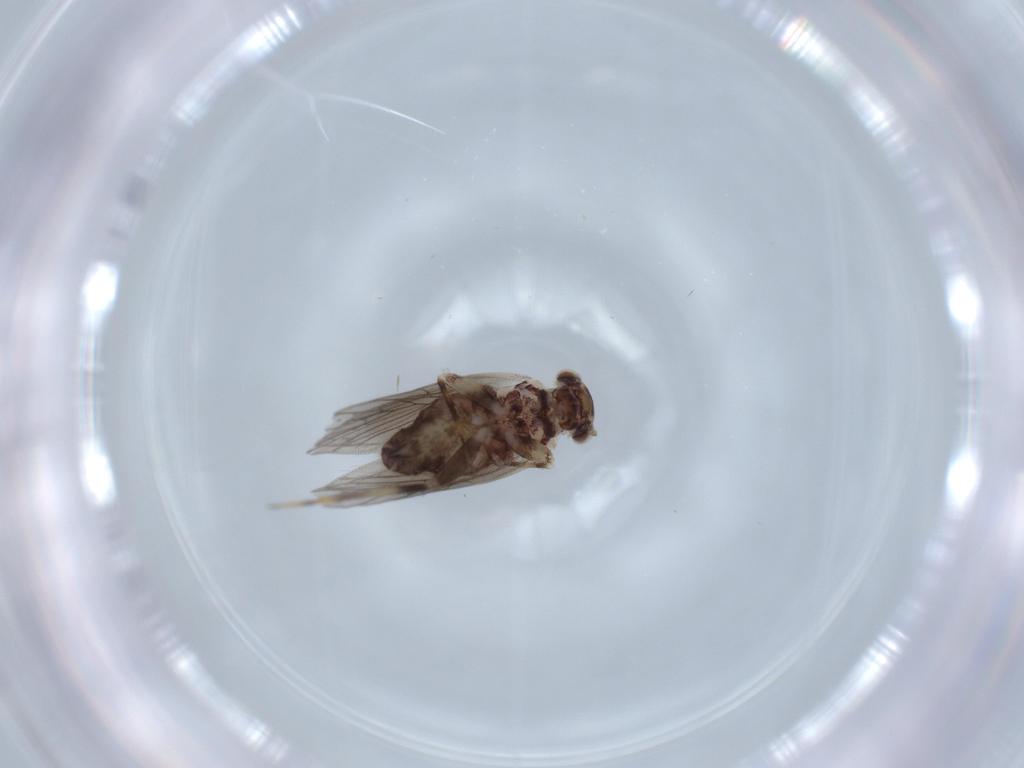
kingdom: Animalia
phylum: Arthropoda
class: Insecta
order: Psocodea
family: Lepidopsocidae
